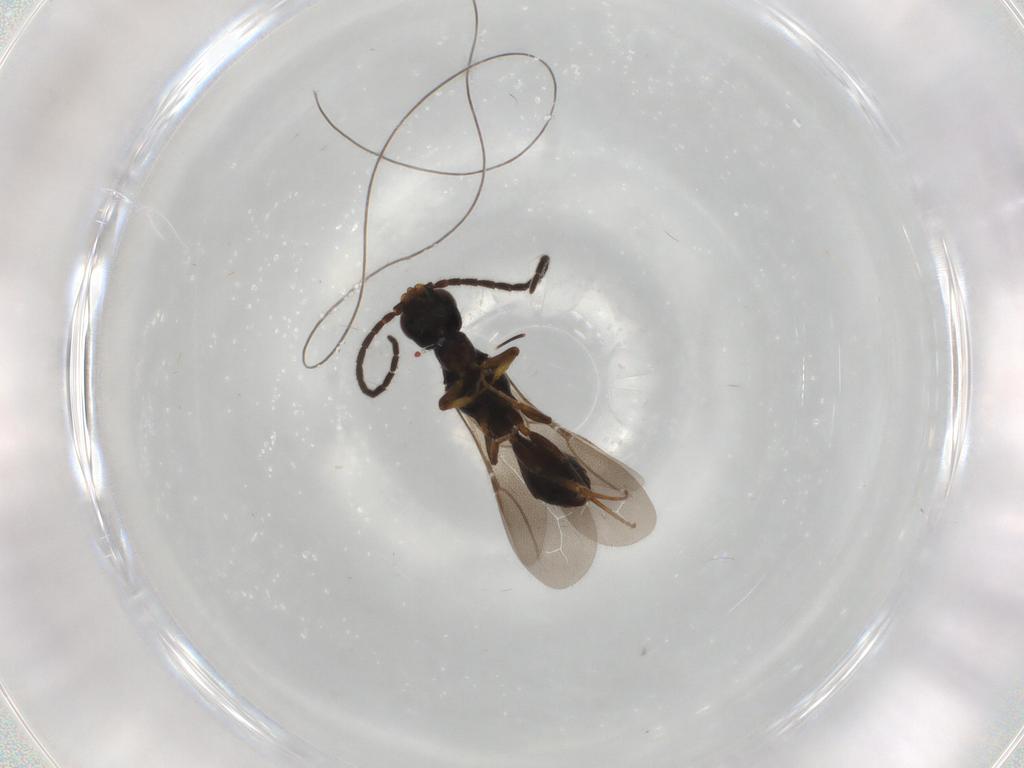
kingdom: Animalia
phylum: Arthropoda
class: Insecta
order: Hymenoptera
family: Bethylidae
